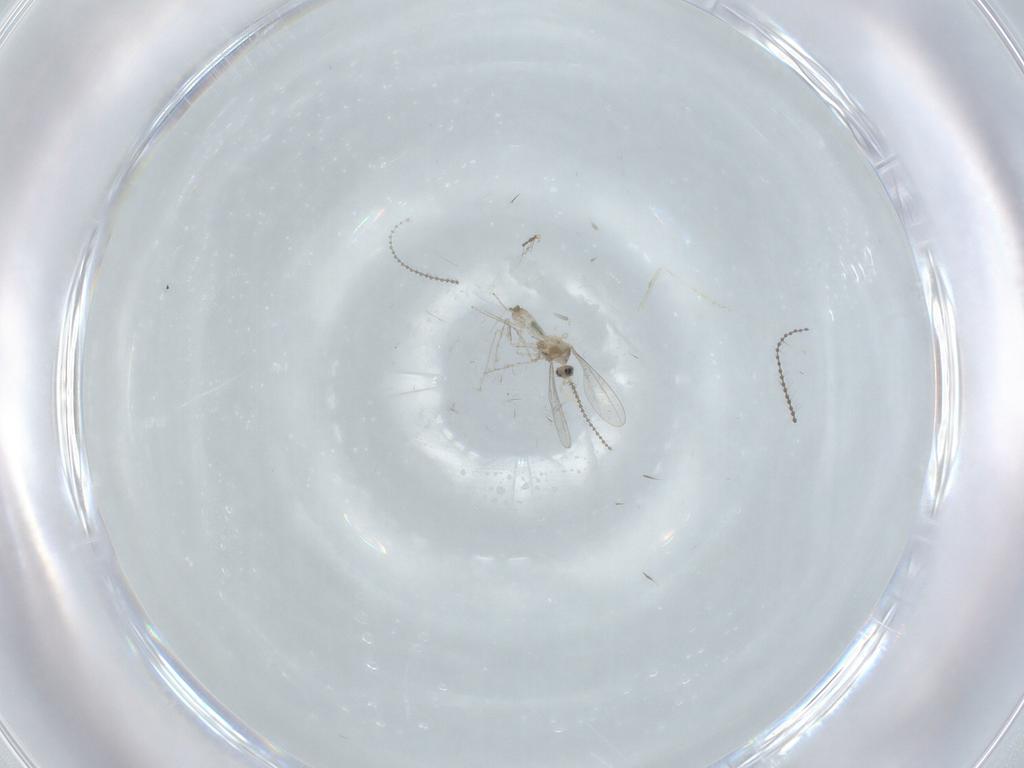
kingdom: Animalia
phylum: Arthropoda
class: Insecta
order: Diptera
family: Cecidomyiidae
